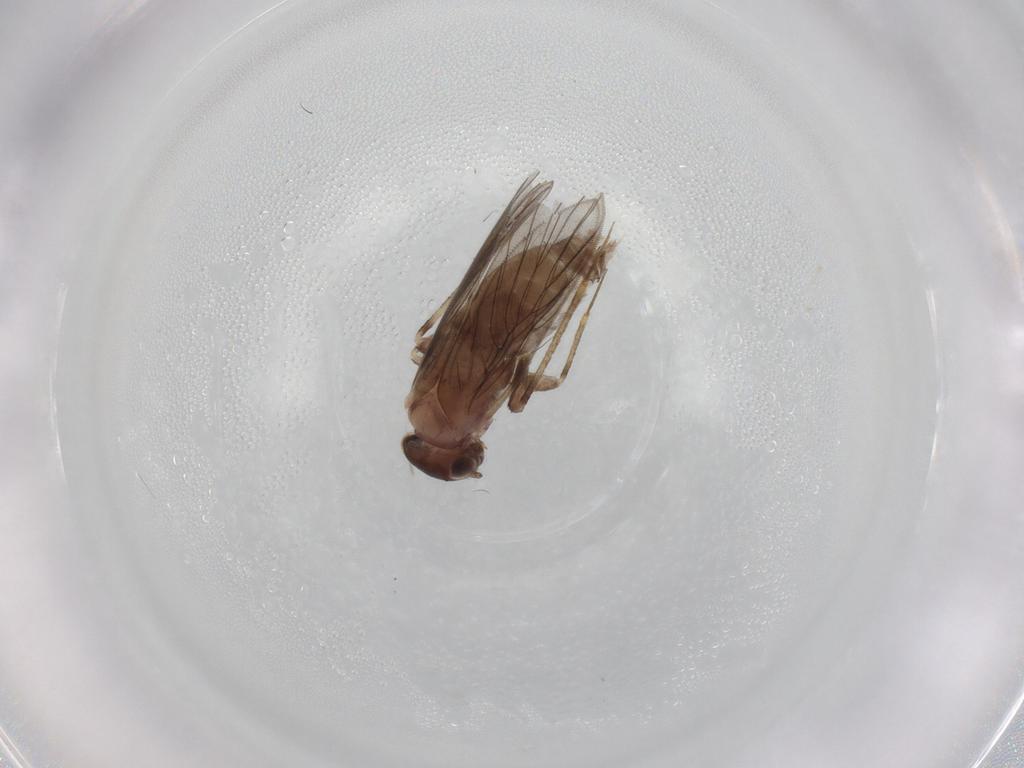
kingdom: Animalia
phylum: Arthropoda
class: Insecta
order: Psocodea
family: Lepidopsocidae
